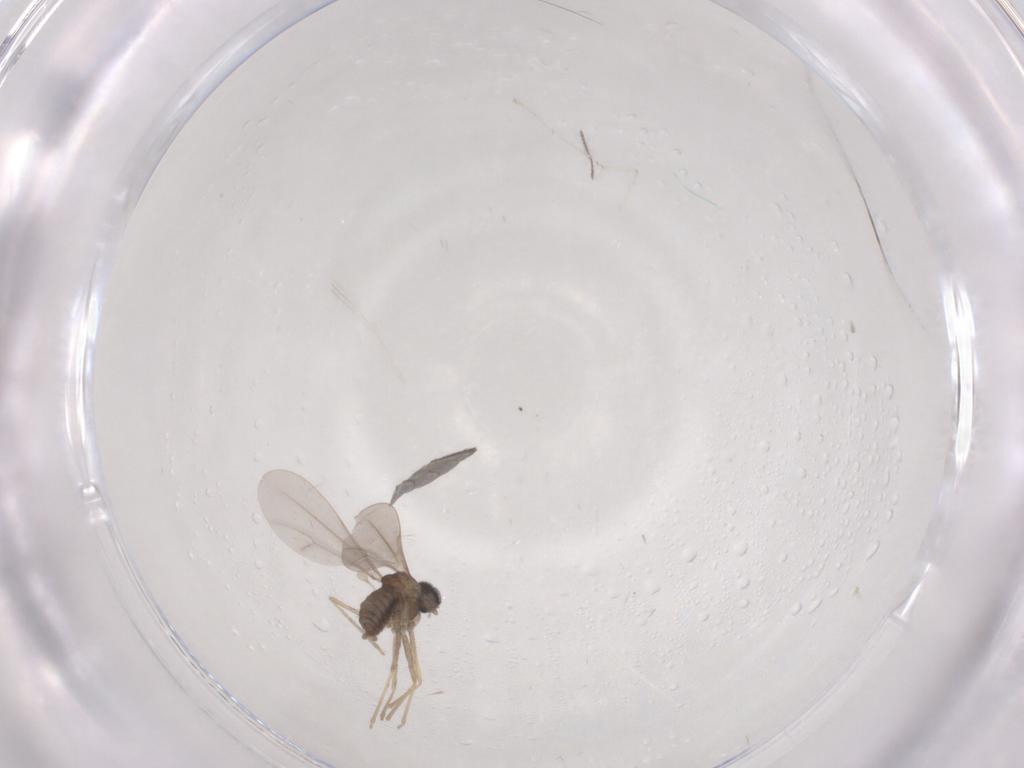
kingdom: Animalia
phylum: Arthropoda
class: Insecta
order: Diptera
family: Cecidomyiidae
